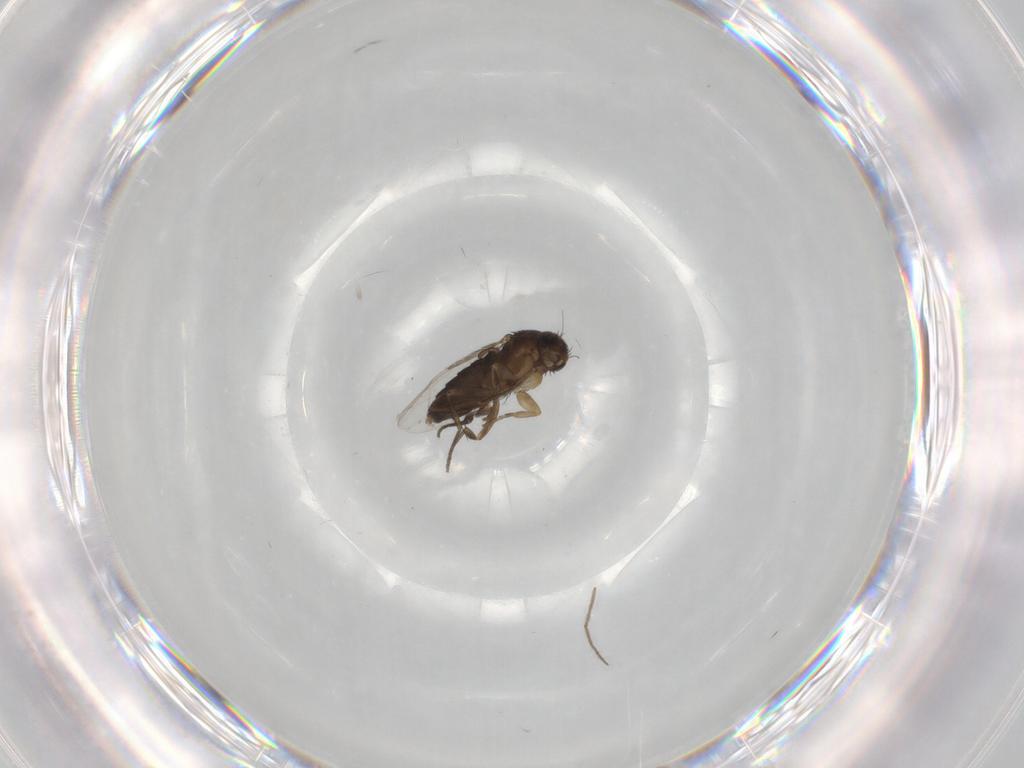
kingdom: Animalia
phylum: Arthropoda
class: Insecta
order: Diptera
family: Phoridae
